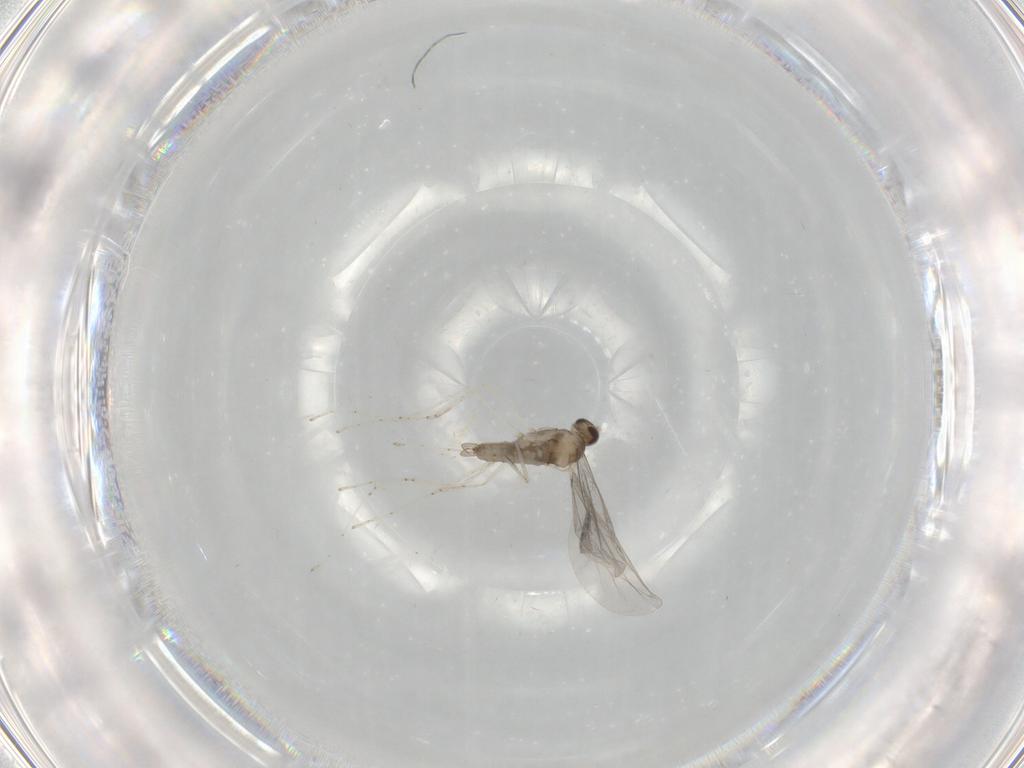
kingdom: Animalia
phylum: Arthropoda
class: Insecta
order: Diptera
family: Cecidomyiidae
